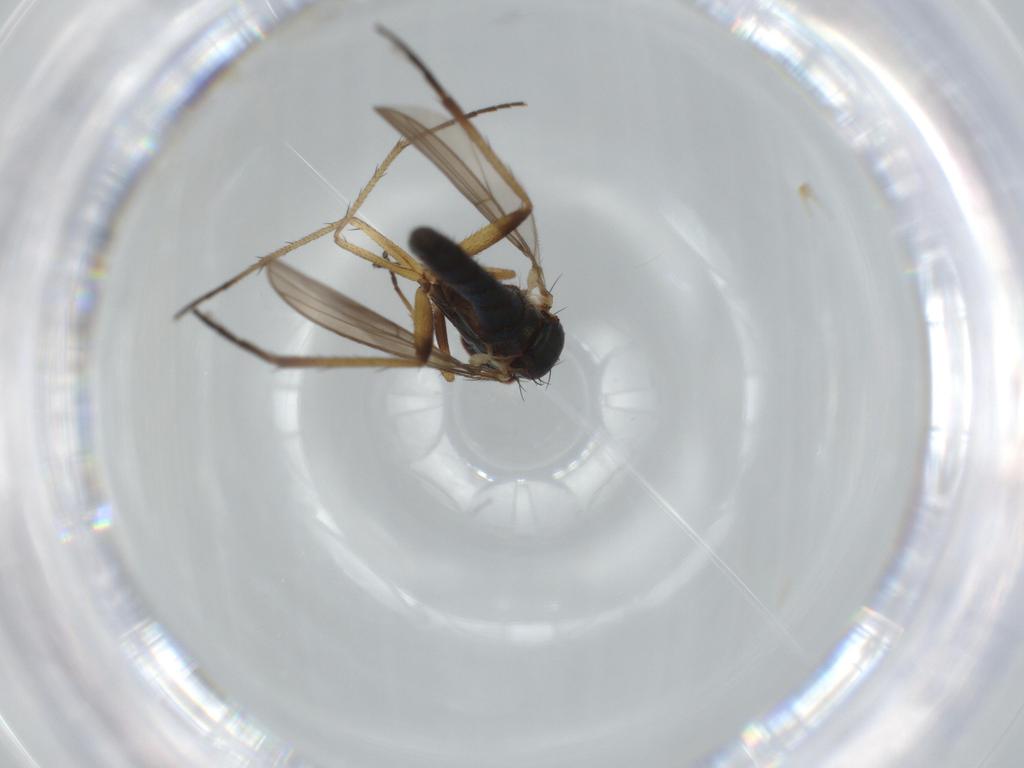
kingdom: Animalia
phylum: Arthropoda
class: Insecta
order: Diptera
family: Dolichopodidae
